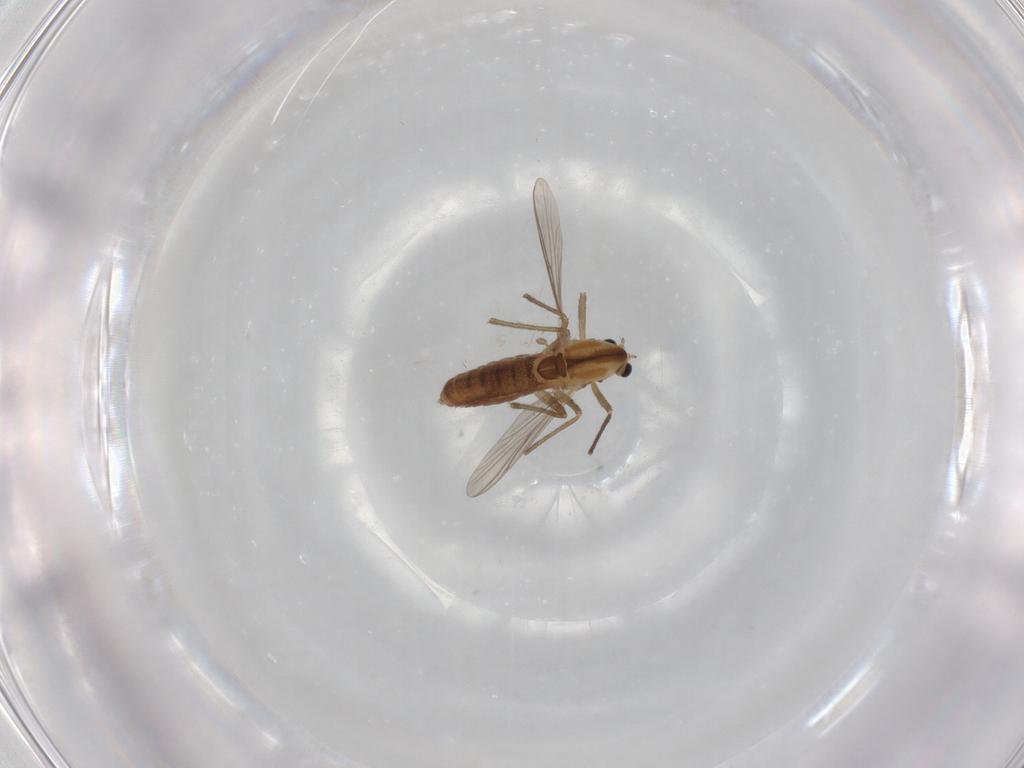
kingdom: Animalia
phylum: Arthropoda
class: Insecta
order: Diptera
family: Chironomidae
